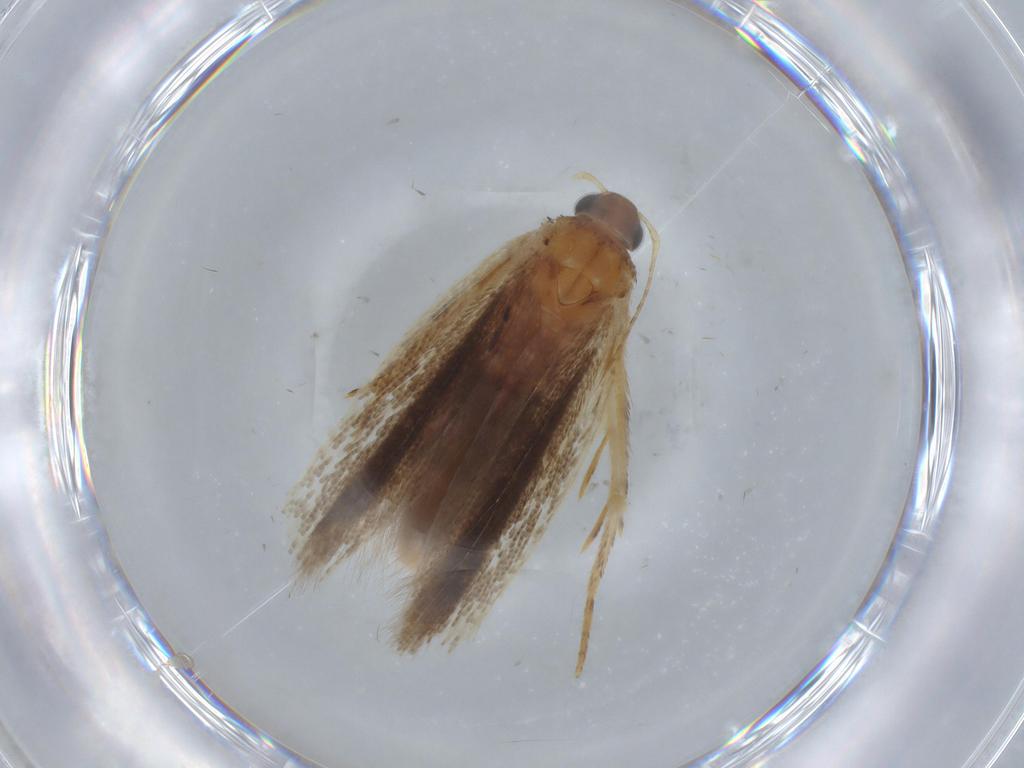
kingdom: Animalia
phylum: Arthropoda
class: Insecta
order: Lepidoptera
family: Gelechiidae
